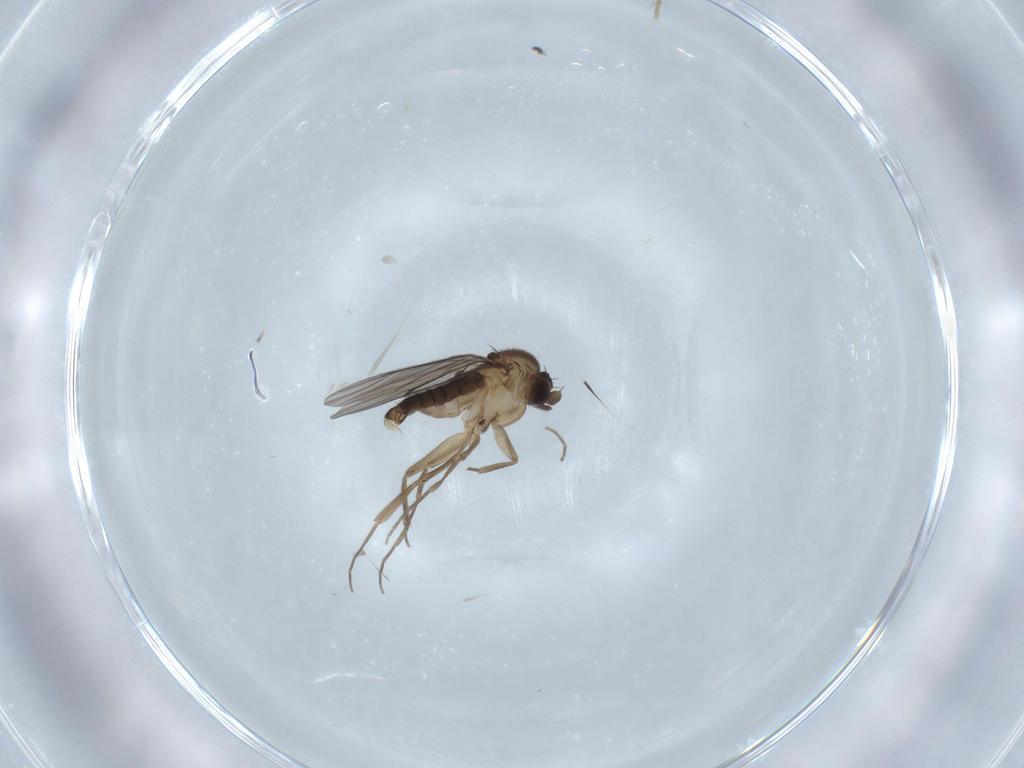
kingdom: Animalia
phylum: Arthropoda
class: Insecta
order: Diptera
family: Phoridae
